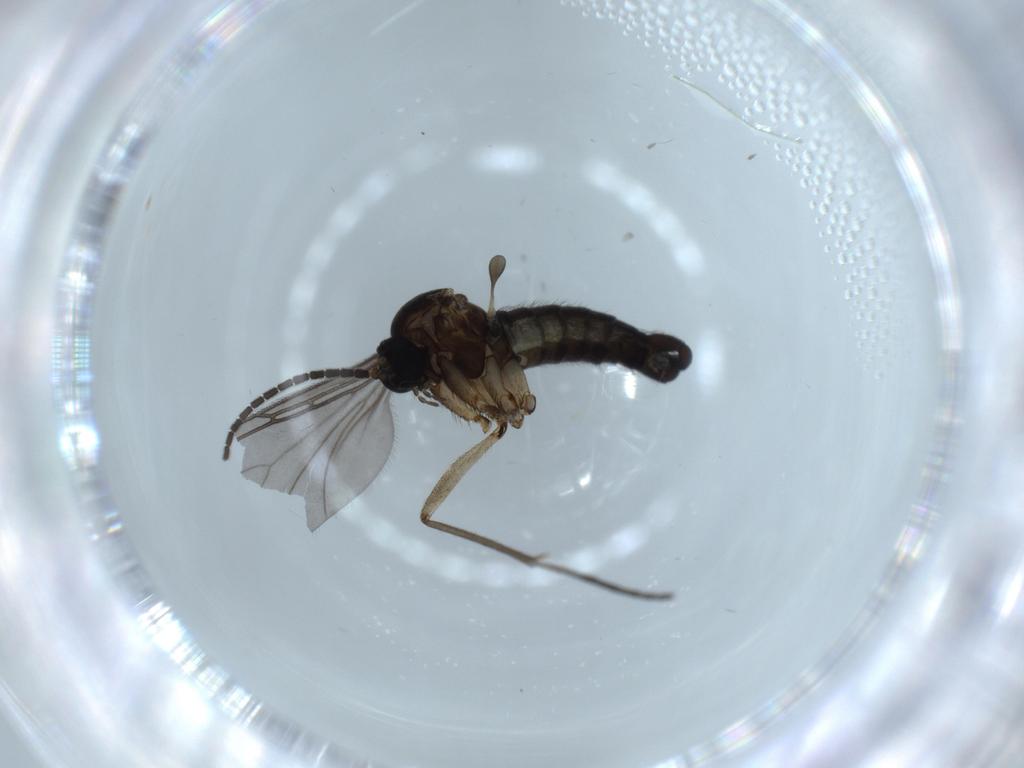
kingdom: Animalia
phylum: Arthropoda
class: Insecta
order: Diptera
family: Sciaridae
